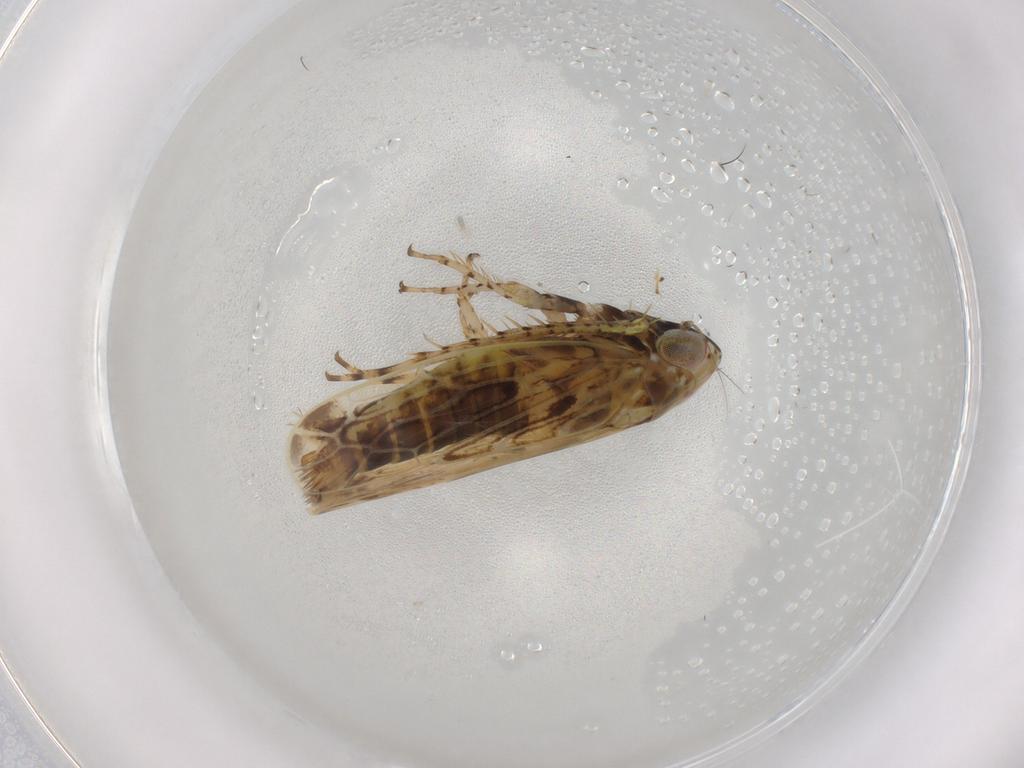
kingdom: Animalia
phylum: Arthropoda
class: Insecta
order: Hemiptera
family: Cicadellidae
